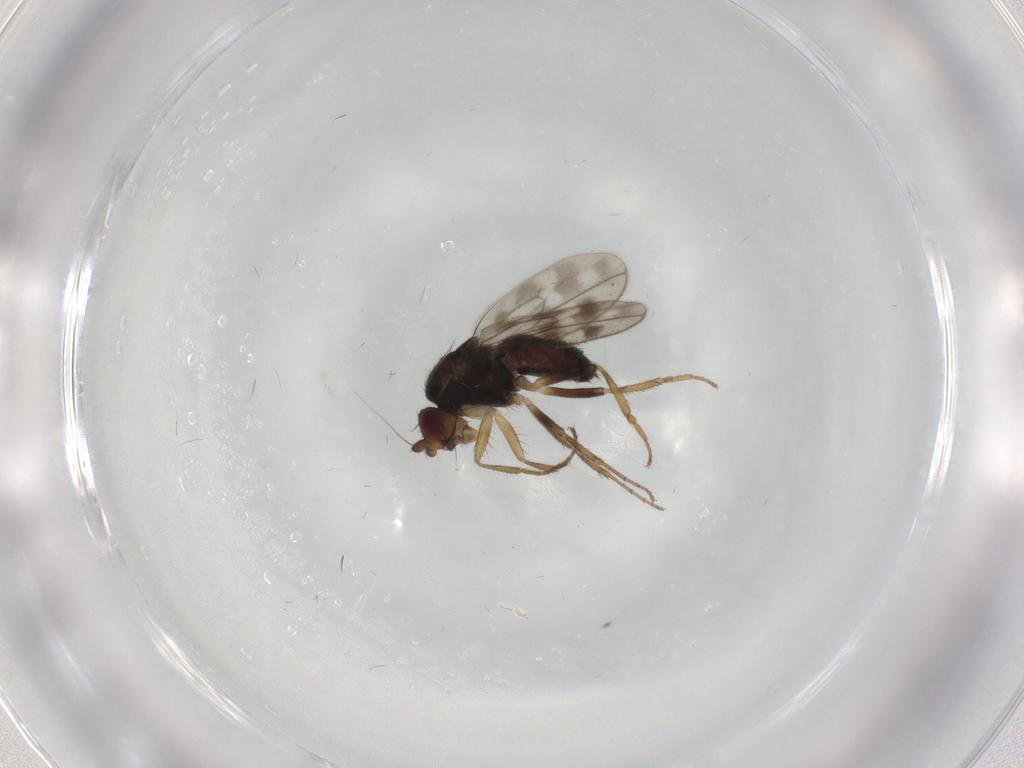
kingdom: Animalia
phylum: Arthropoda
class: Insecta
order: Diptera
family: Sphaeroceridae
